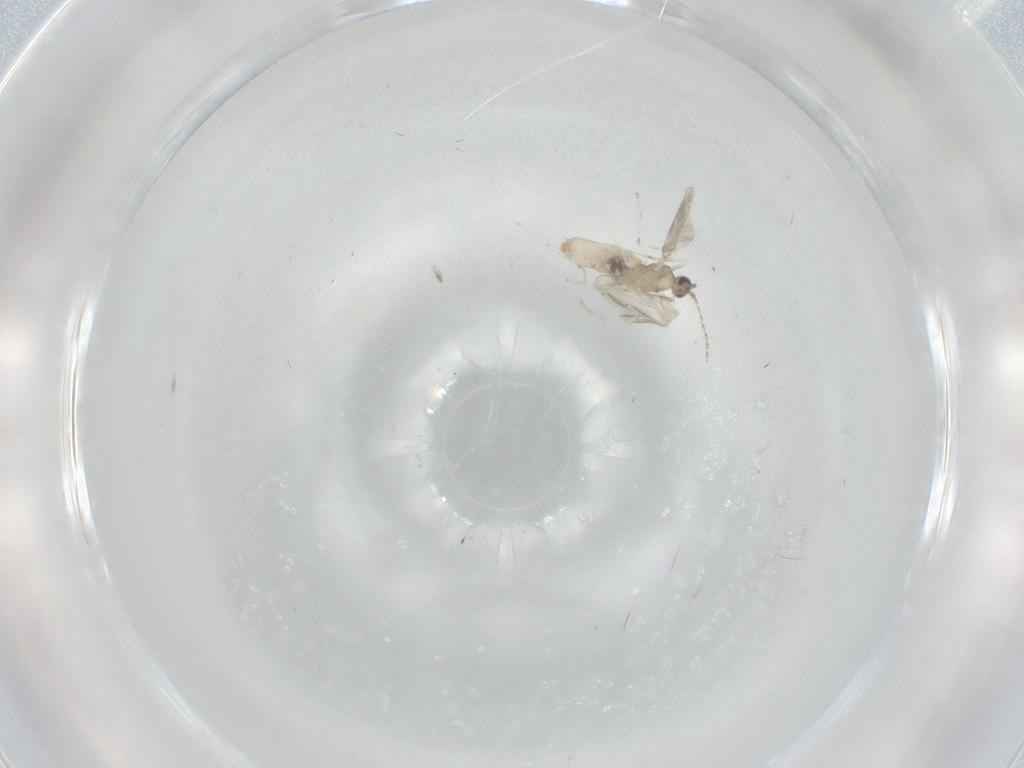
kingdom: Animalia
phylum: Arthropoda
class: Insecta
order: Diptera
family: Cecidomyiidae
